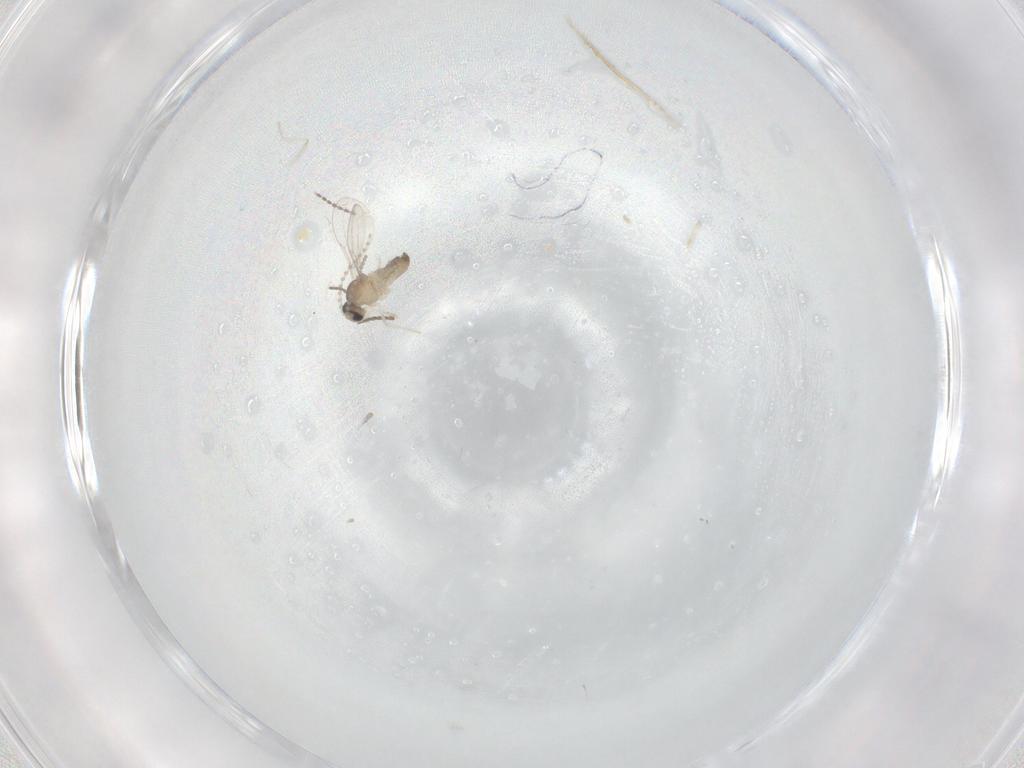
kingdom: Animalia
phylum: Arthropoda
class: Insecta
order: Diptera
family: Cecidomyiidae
